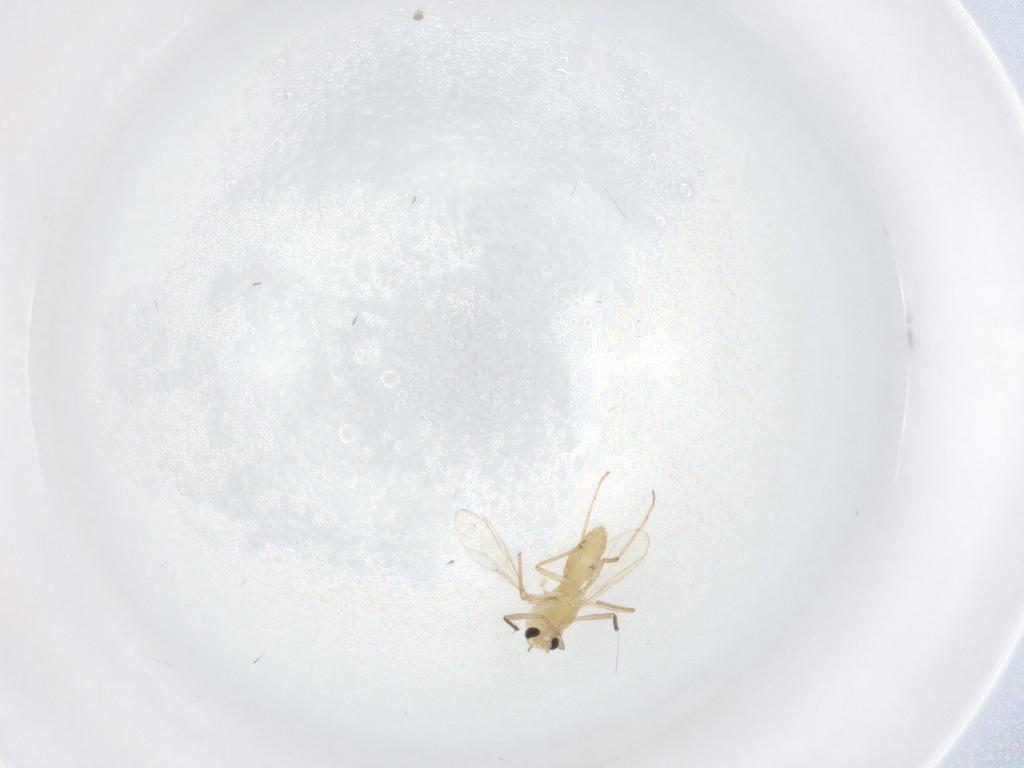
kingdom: Animalia
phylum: Arthropoda
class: Insecta
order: Diptera
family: Chironomidae
